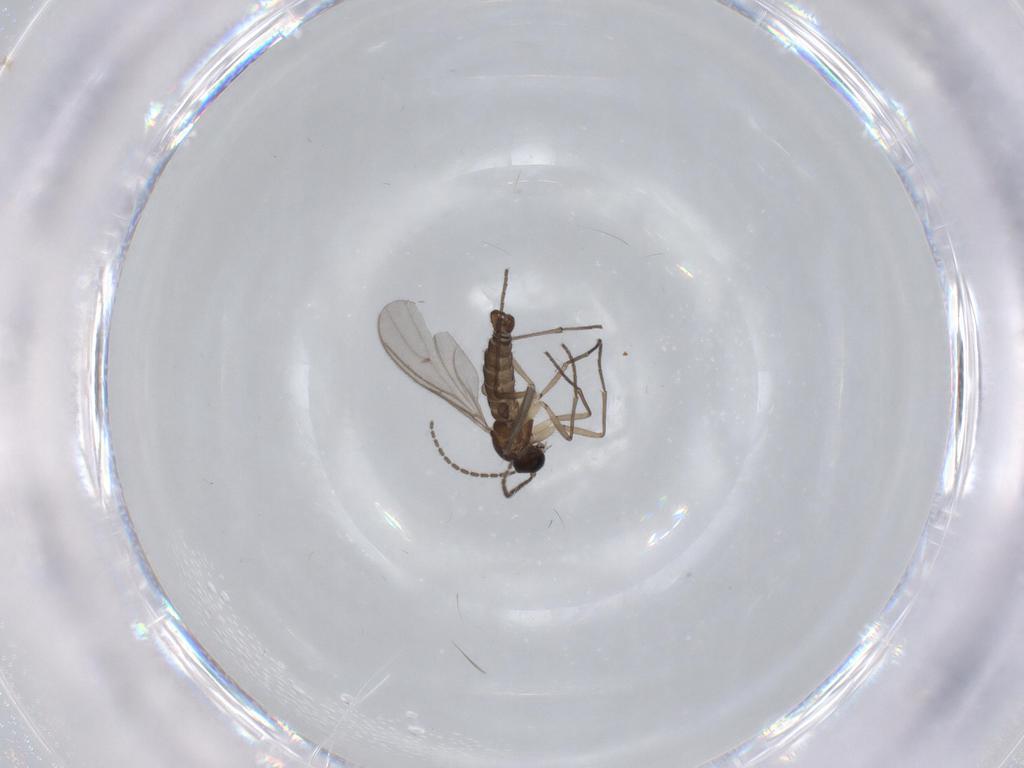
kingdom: Animalia
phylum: Arthropoda
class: Insecta
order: Diptera
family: Sciaridae
